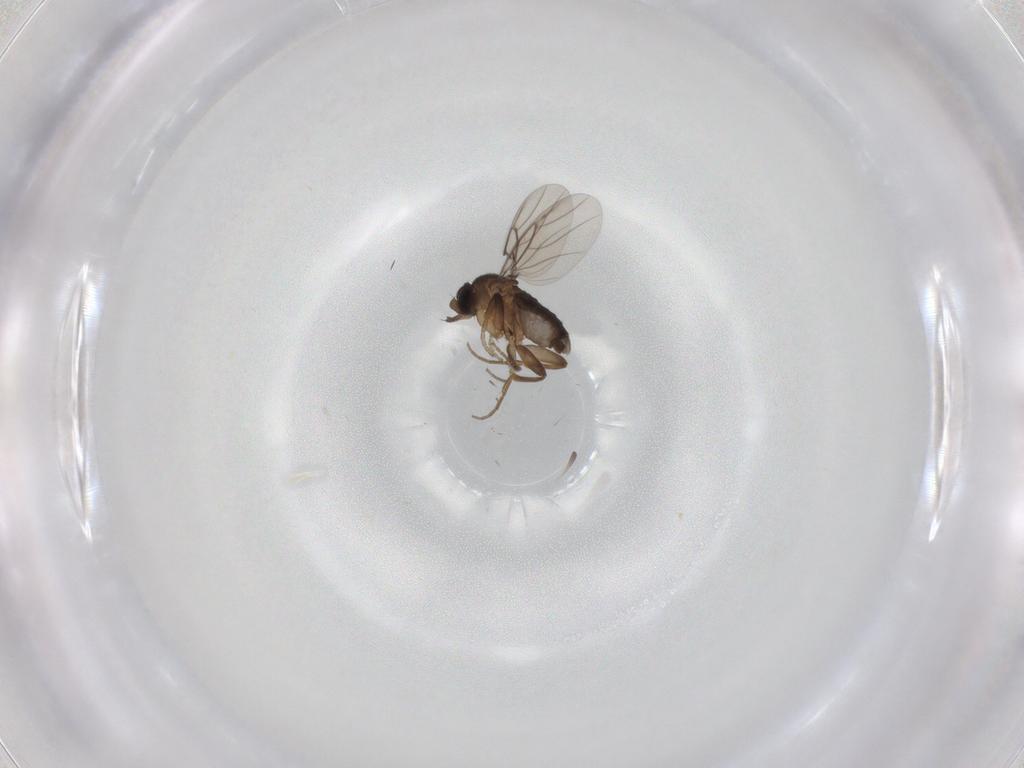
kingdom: Animalia
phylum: Arthropoda
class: Insecta
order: Diptera
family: Phoridae
